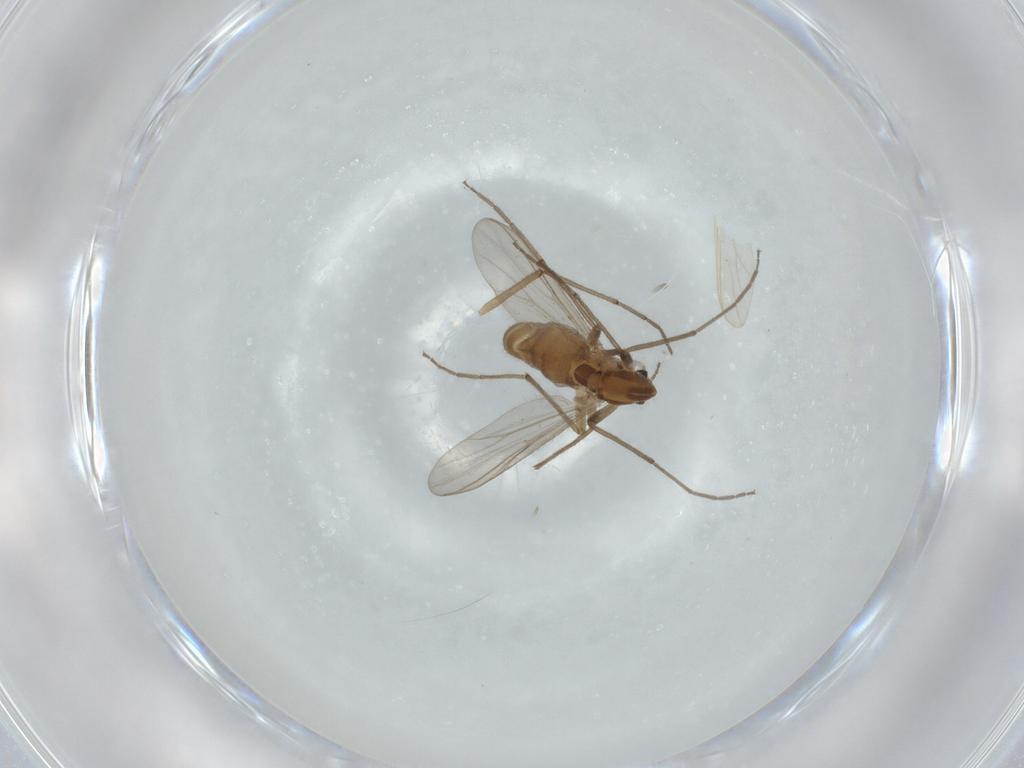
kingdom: Animalia
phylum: Arthropoda
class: Insecta
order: Diptera
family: Chironomidae
